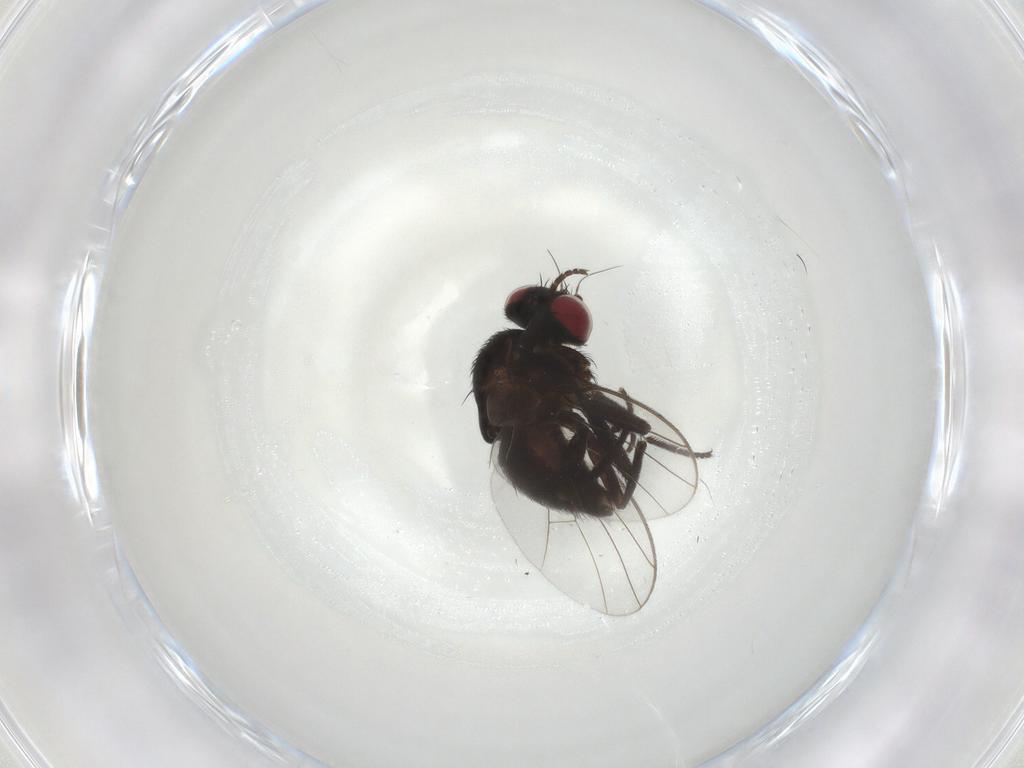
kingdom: Animalia
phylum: Arthropoda
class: Insecta
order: Diptera
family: Agromyzidae
